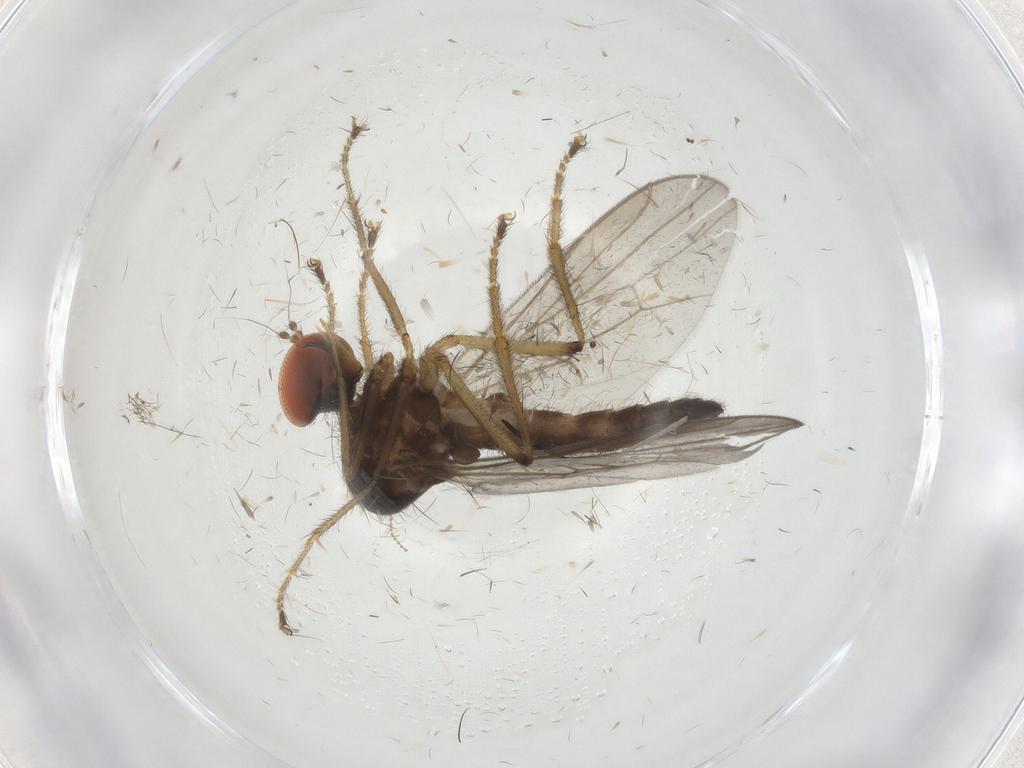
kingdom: Animalia
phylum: Arthropoda
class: Insecta
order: Diptera
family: Hybotidae
